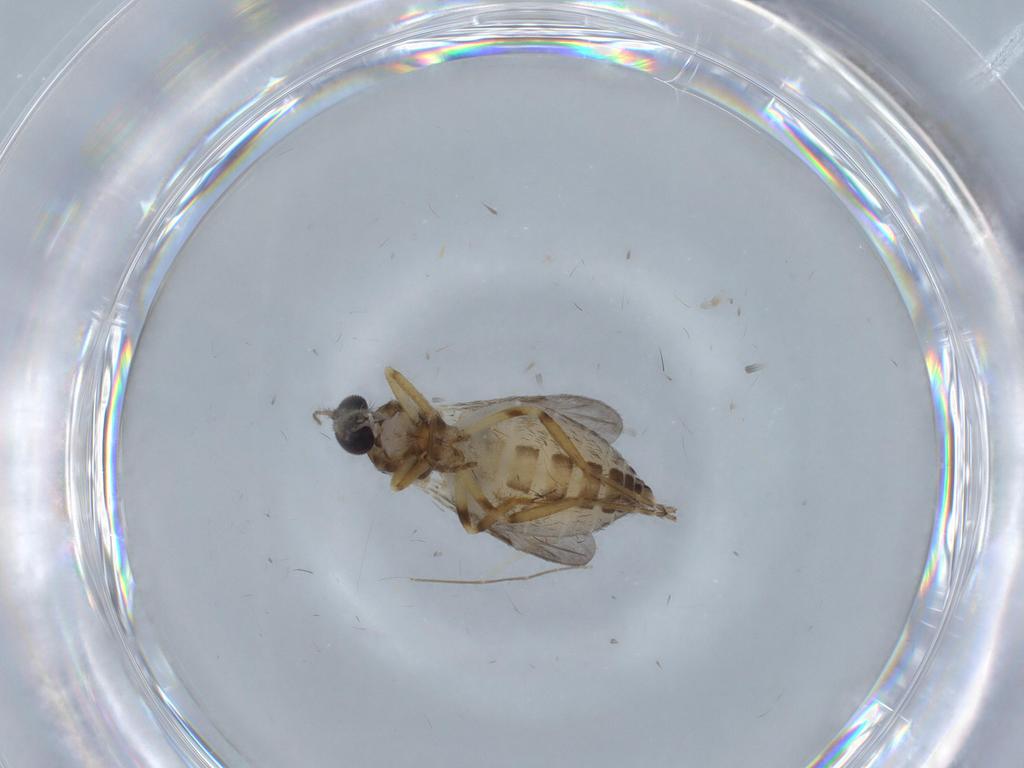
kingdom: Animalia
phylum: Arthropoda
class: Insecta
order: Diptera
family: Ceratopogonidae
